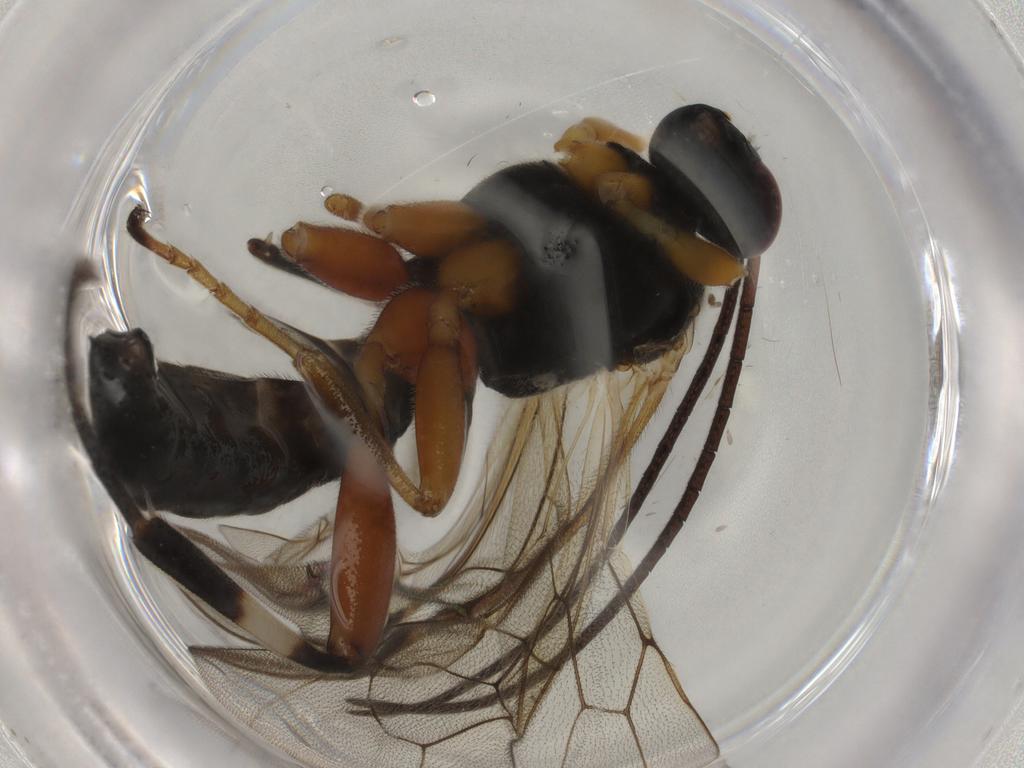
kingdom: Animalia
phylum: Arthropoda
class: Insecta
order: Hymenoptera
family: Ichneumonidae
